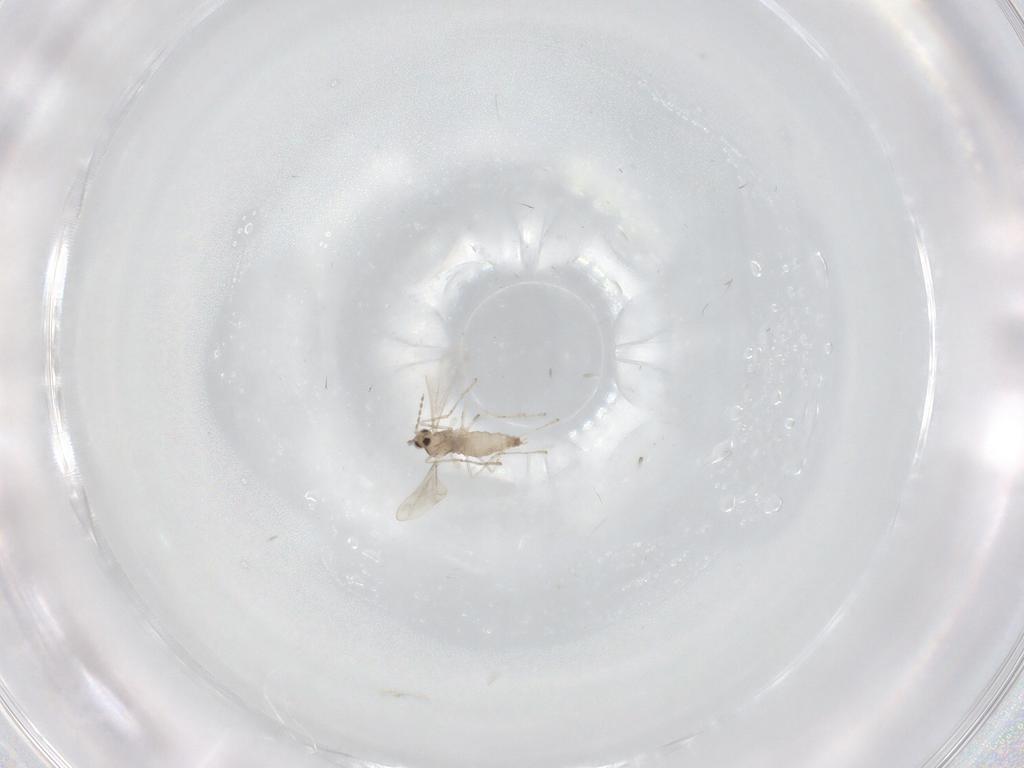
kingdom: Animalia
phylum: Arthropoda
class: Insecta
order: Diptera
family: Cecidomyiidae
